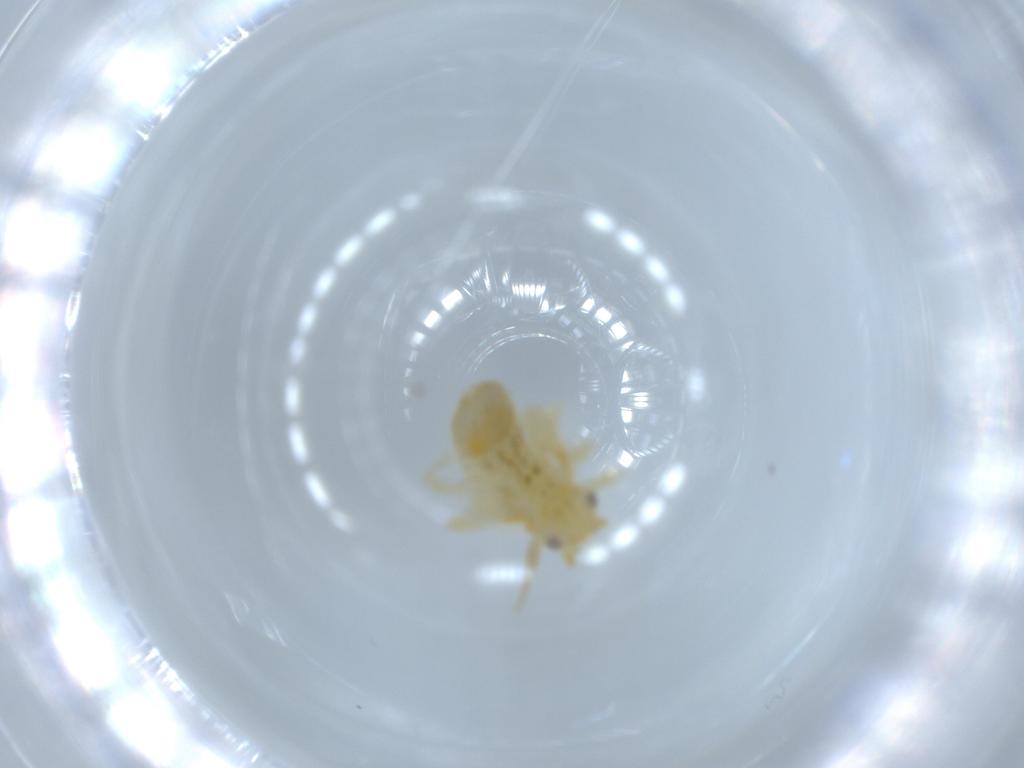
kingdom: Animalia
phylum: Arthropoda
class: Insecta
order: Hemiptera
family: Psyllidae
